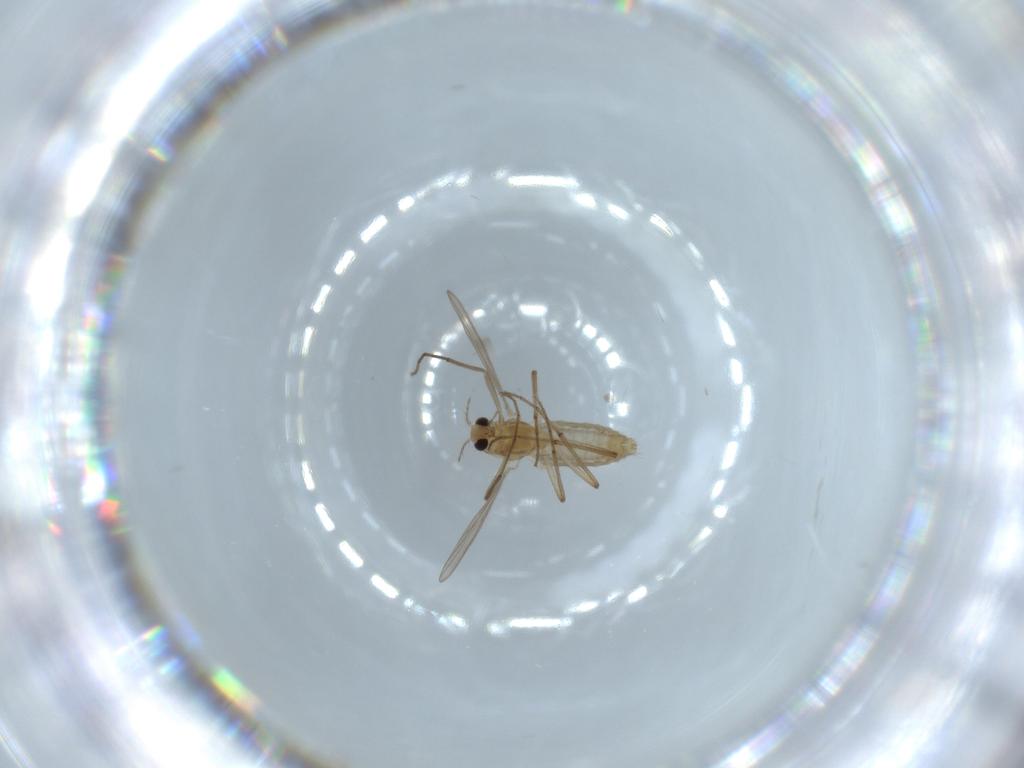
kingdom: Animalia
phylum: Arthropoda
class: Insecta
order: Diptera
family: Chironomidae
